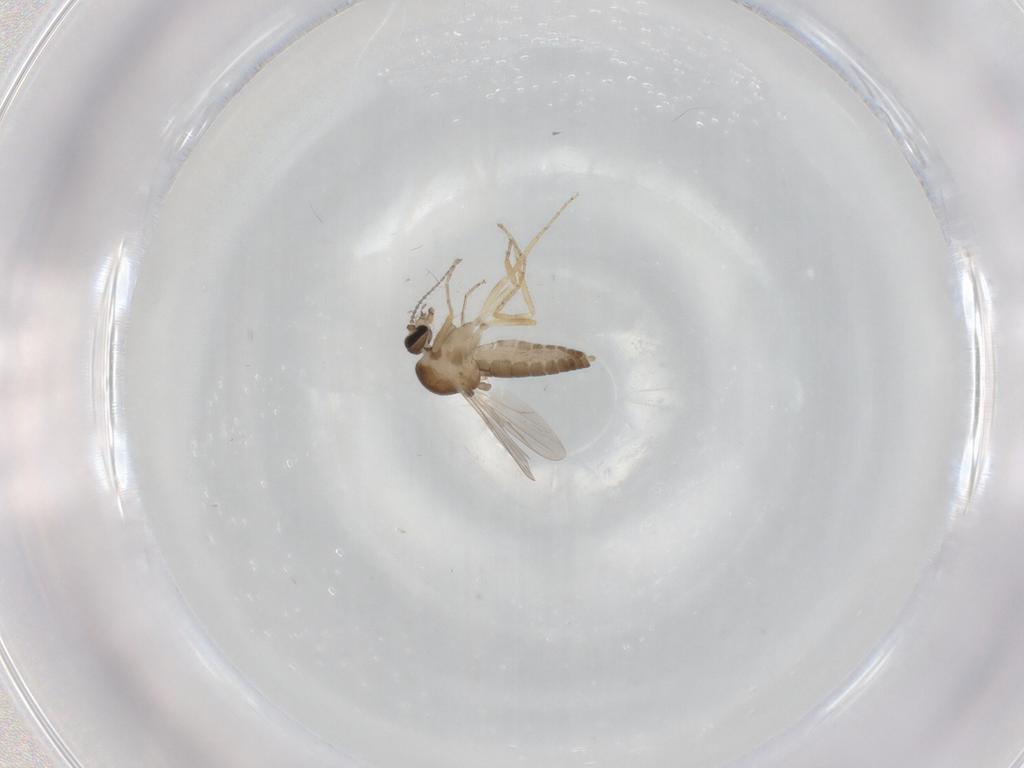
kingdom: Animalia
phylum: Arthropoda
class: Insecta
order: Diptera
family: Ceratopogonidae
